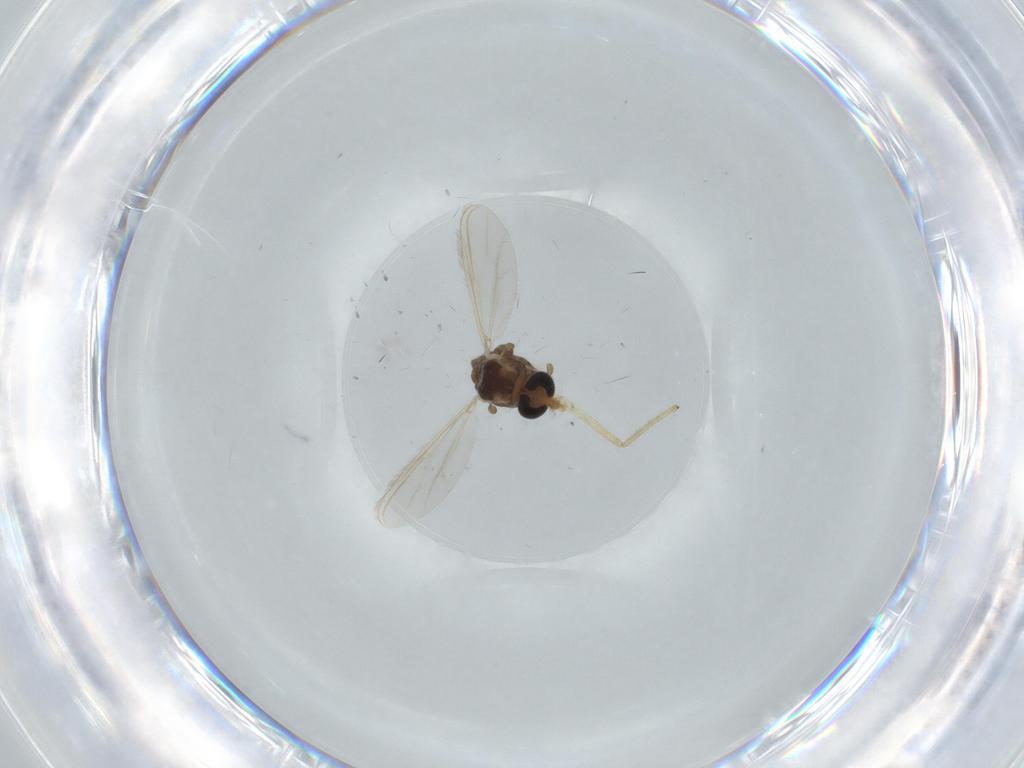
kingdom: Animalia
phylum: Arthropoda
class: Insecta
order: Diptera
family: Chironomidae
